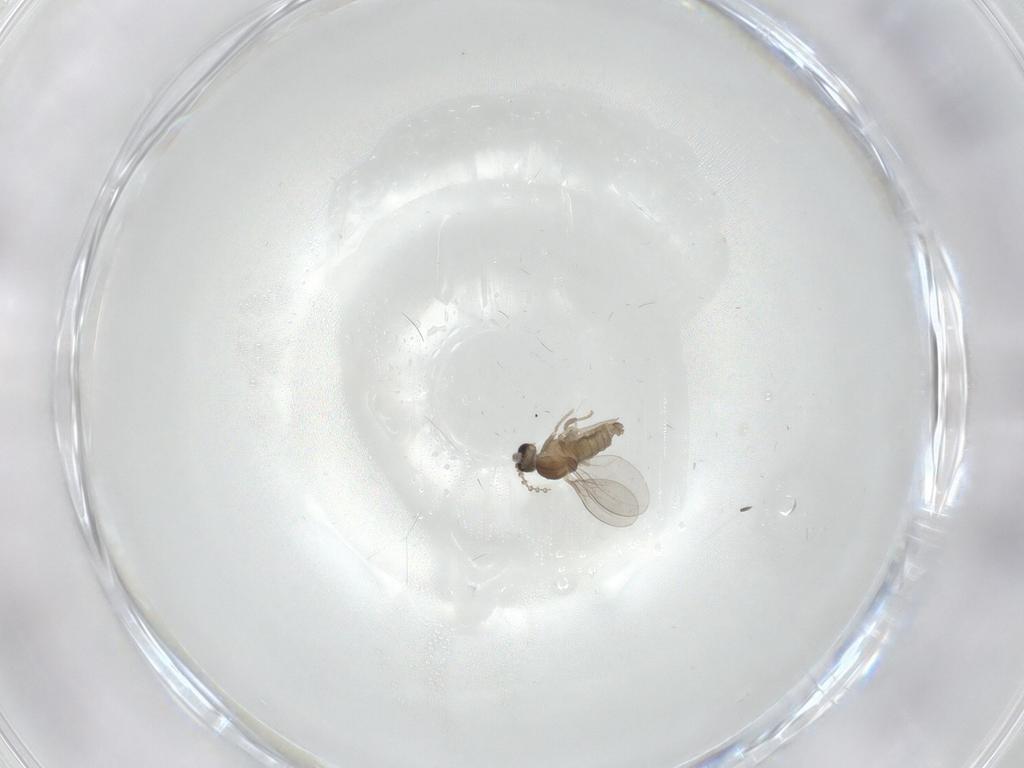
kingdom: Animalia
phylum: Arthropoda
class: Insecta
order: Diptera
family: Cecidomyiidae
